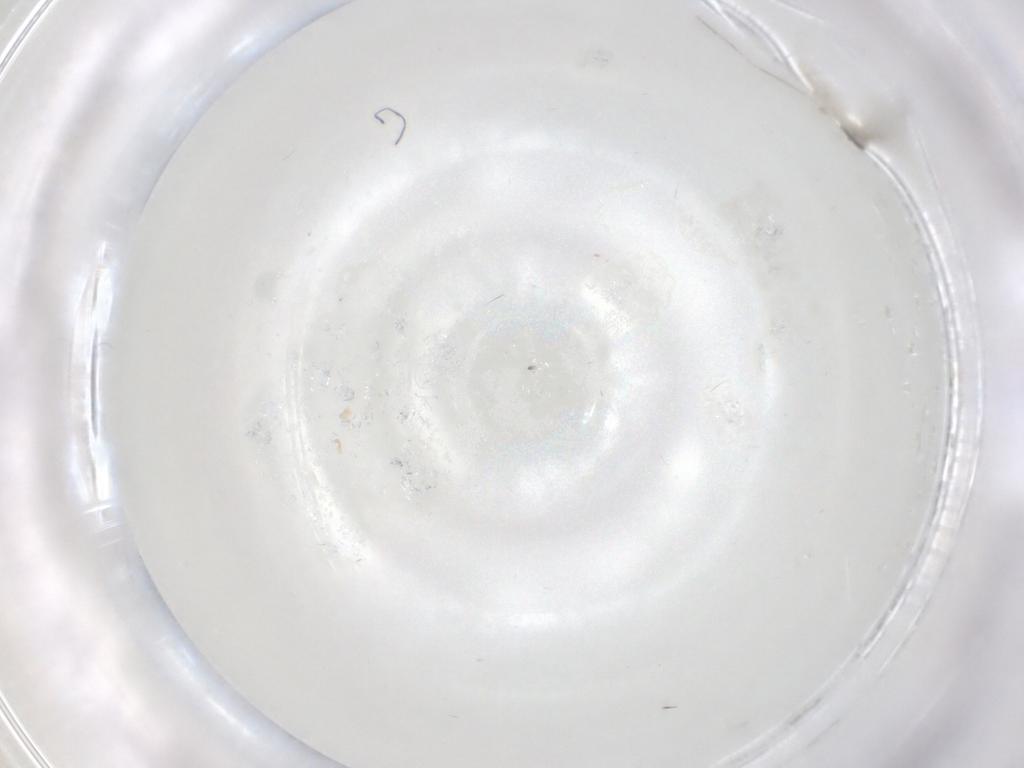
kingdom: Animalia
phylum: Arthropoda
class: Insecta
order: Diptera
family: Cecidomyiidae
